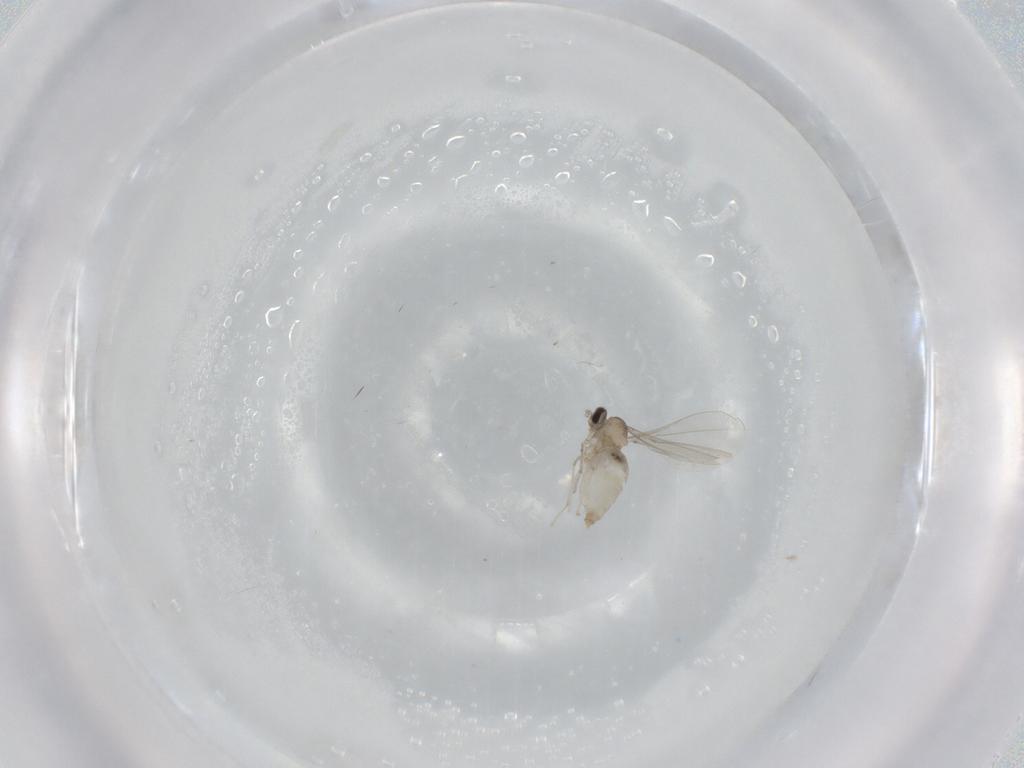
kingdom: Animalia
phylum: Arthropoda
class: Insecta
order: Diptera
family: Cecidomyiidae
